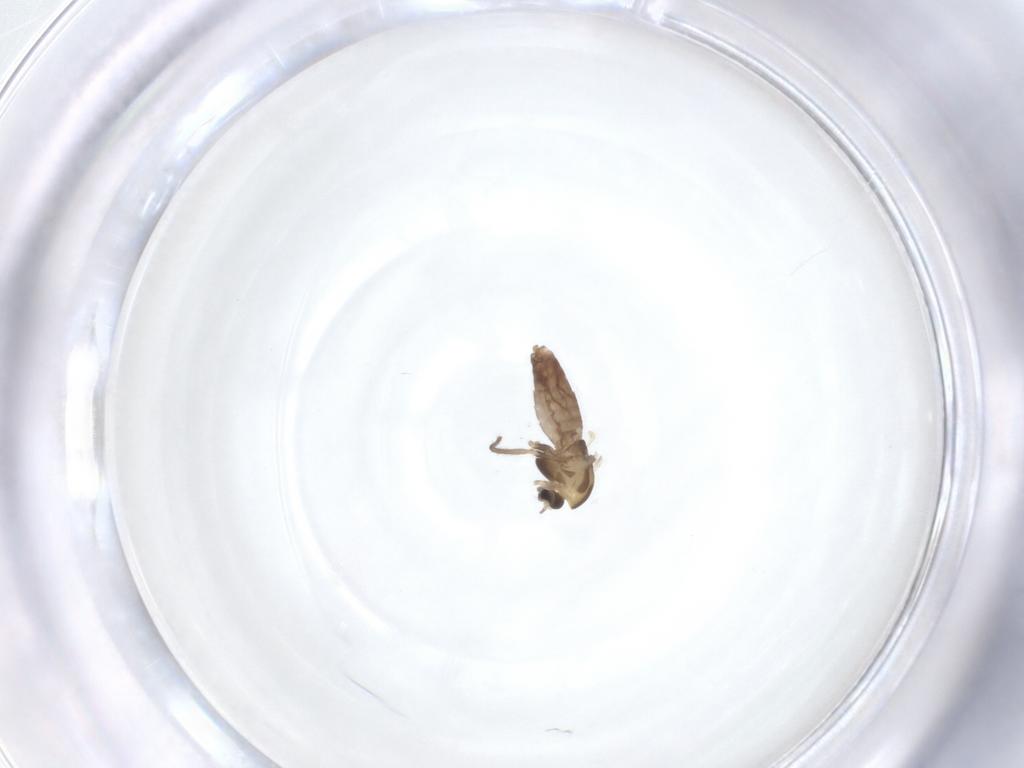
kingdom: Animalia
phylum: Arthropoda
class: Insecta
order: Diptera
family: Chironomidae
